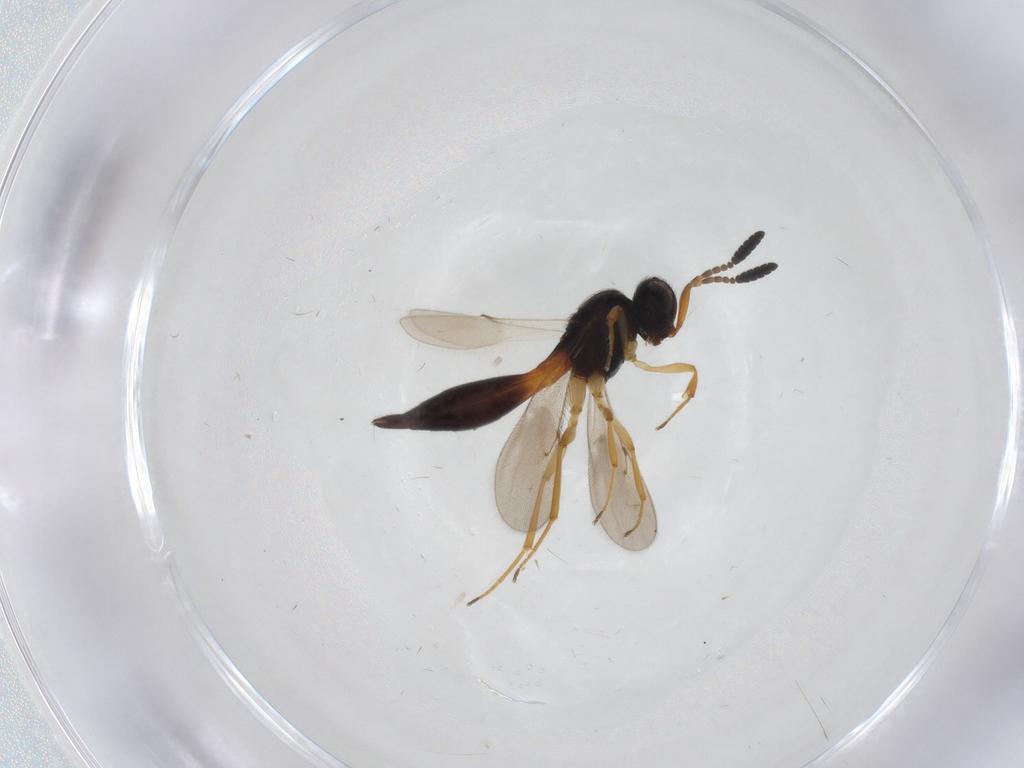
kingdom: Animalia
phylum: Arthropoda
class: Insecta
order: Hymenoptera
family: Scelionidae
